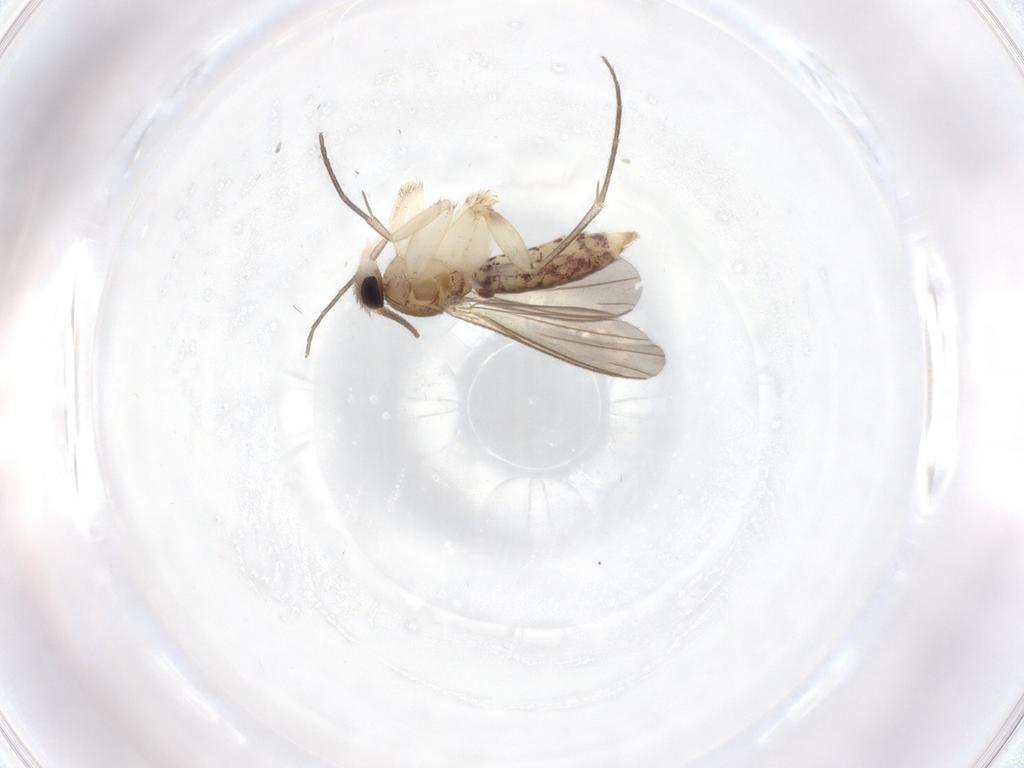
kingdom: Animalia
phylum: Arthropoda
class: Insecta
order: Diptera
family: Mycetophilidae
